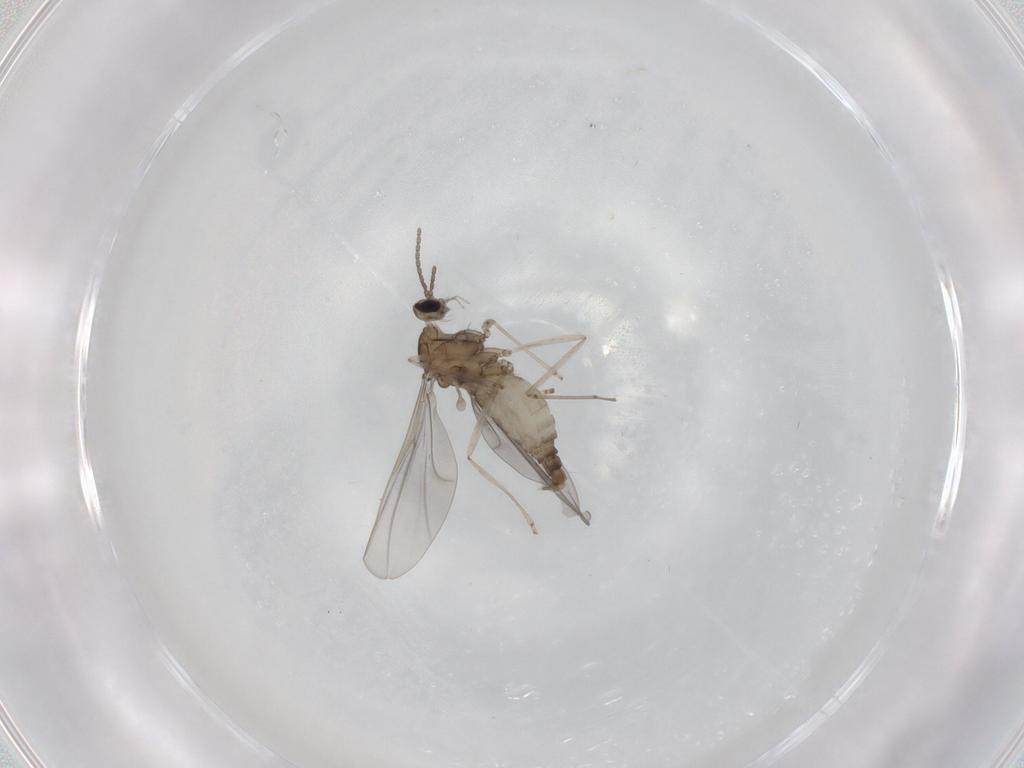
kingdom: Animalia
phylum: Arthropoda
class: Insecta
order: Diptera
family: Cecidomyiidae
